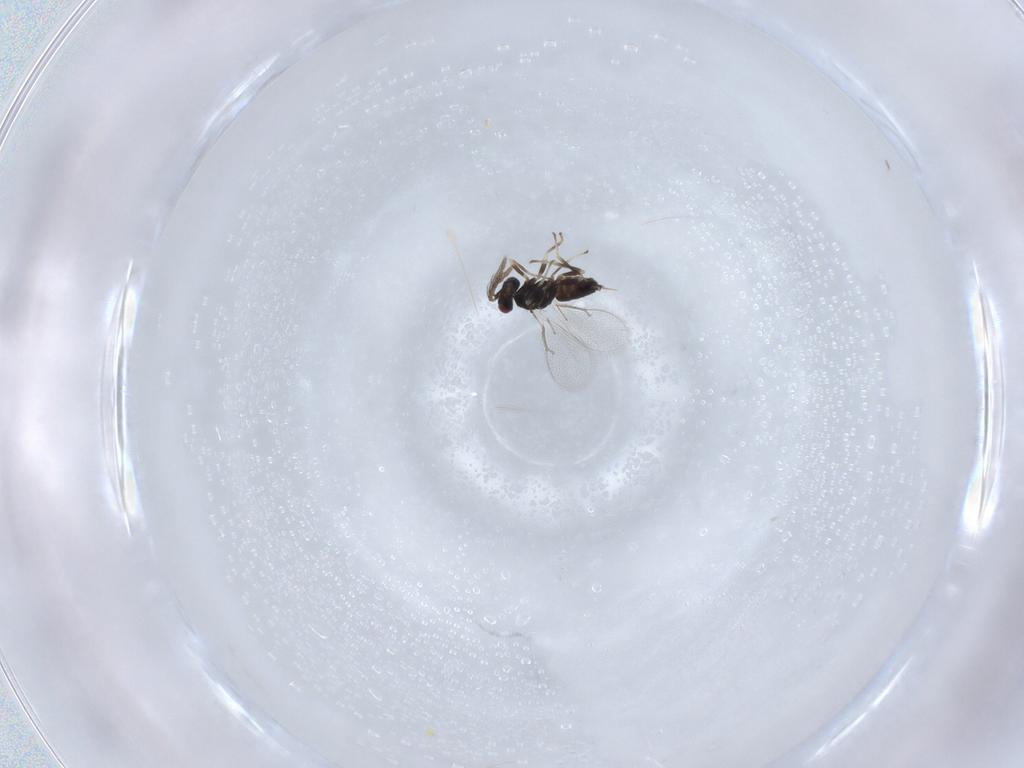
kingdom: Animalia
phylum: Arthropoda
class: Insecta
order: Hymenoptera
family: Eulophidae
